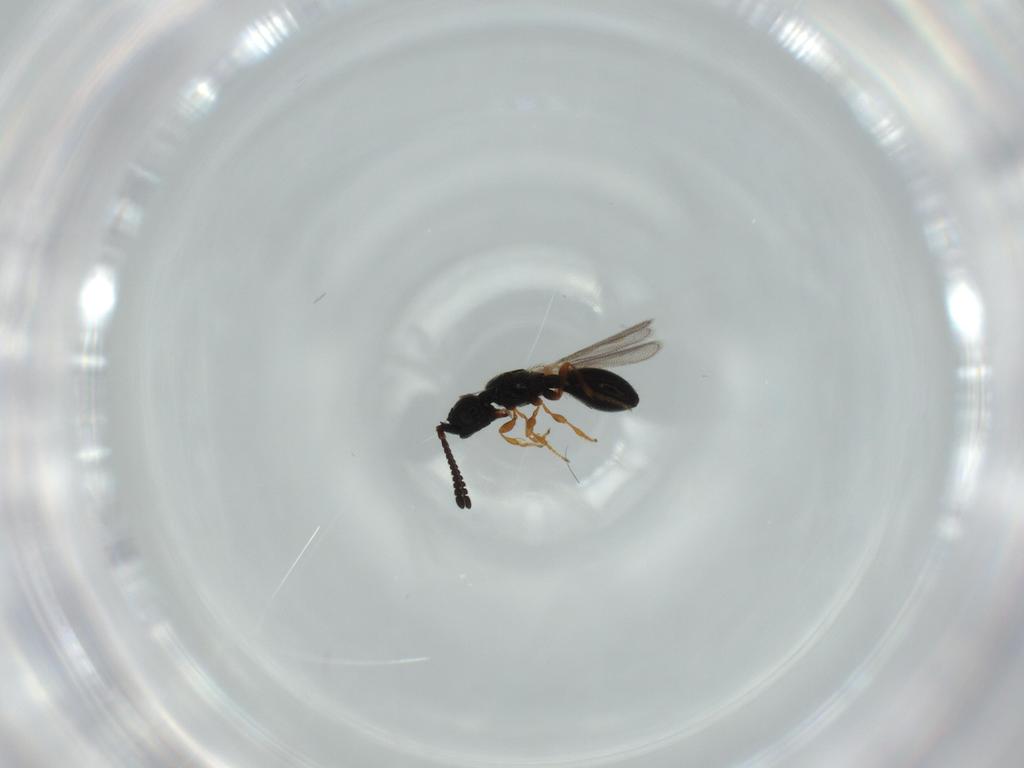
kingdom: Animalia
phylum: Arthropoda
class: Insecta
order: Hymenoptera
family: Diapriidae
